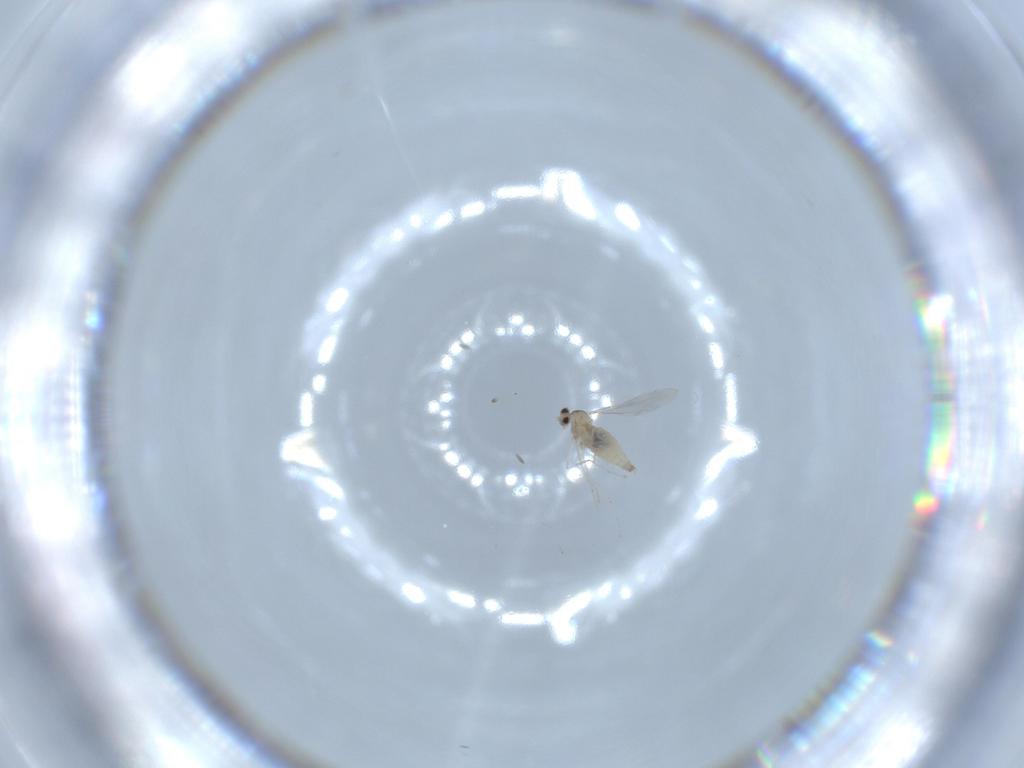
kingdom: Animalia
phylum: Arthropoda
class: Insecta
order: Diptera
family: Cecidomyiidae
